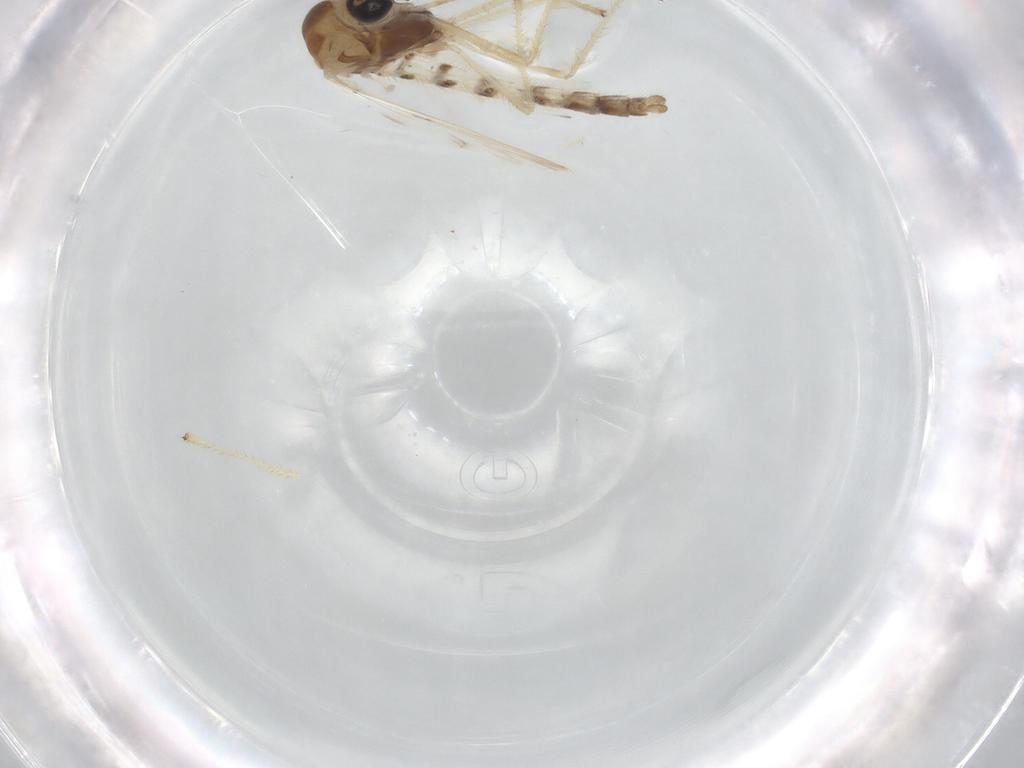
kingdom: Animalia
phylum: Arthropoda
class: Insecta
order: Diptera
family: Chironomidae
